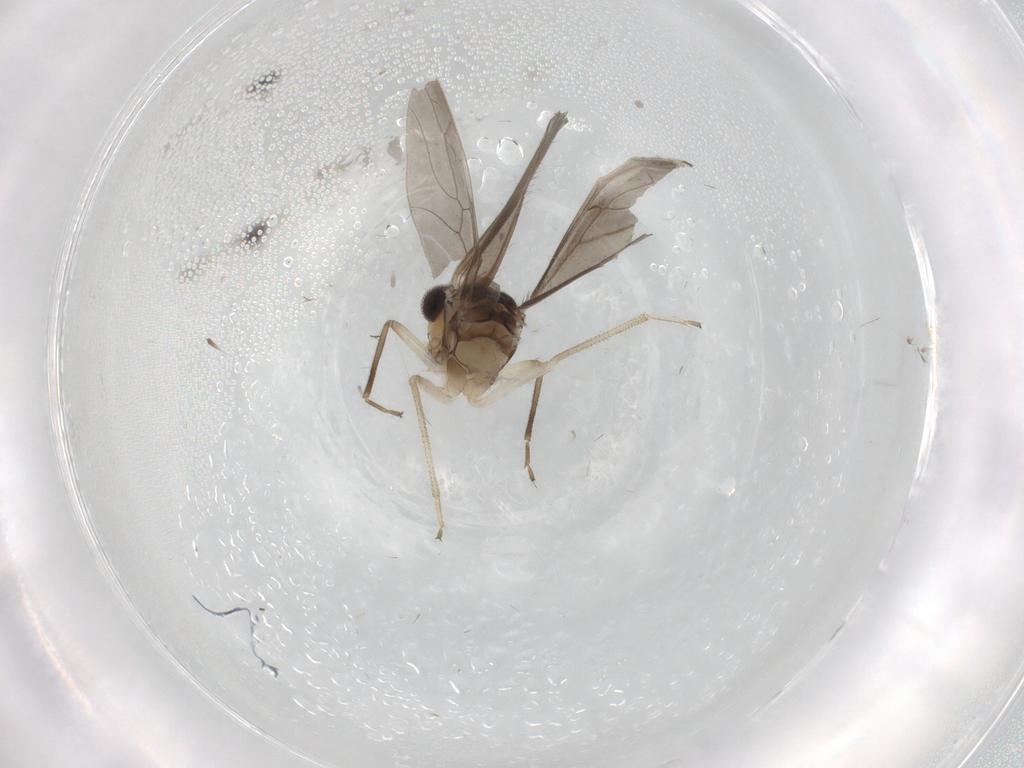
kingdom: Animalia
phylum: Arthropoda
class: Insecta
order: Psocodea
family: Caeciliusidae
